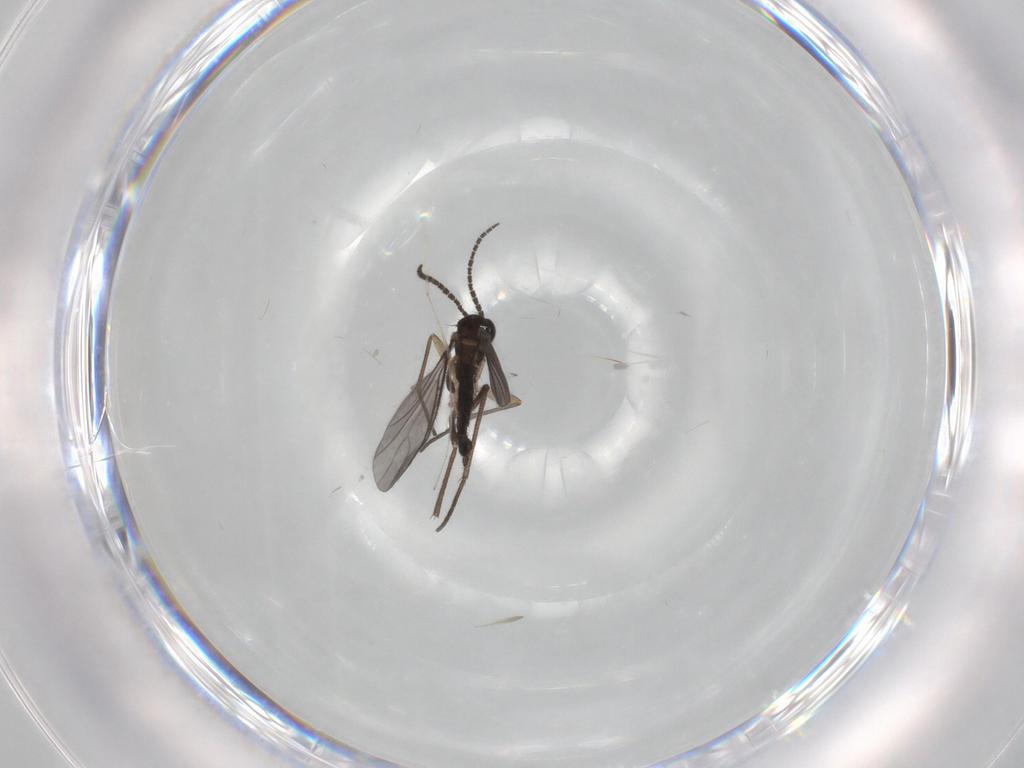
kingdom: Animalia
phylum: Arthropoda
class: Insecta
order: Diptera
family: Sciaridae
